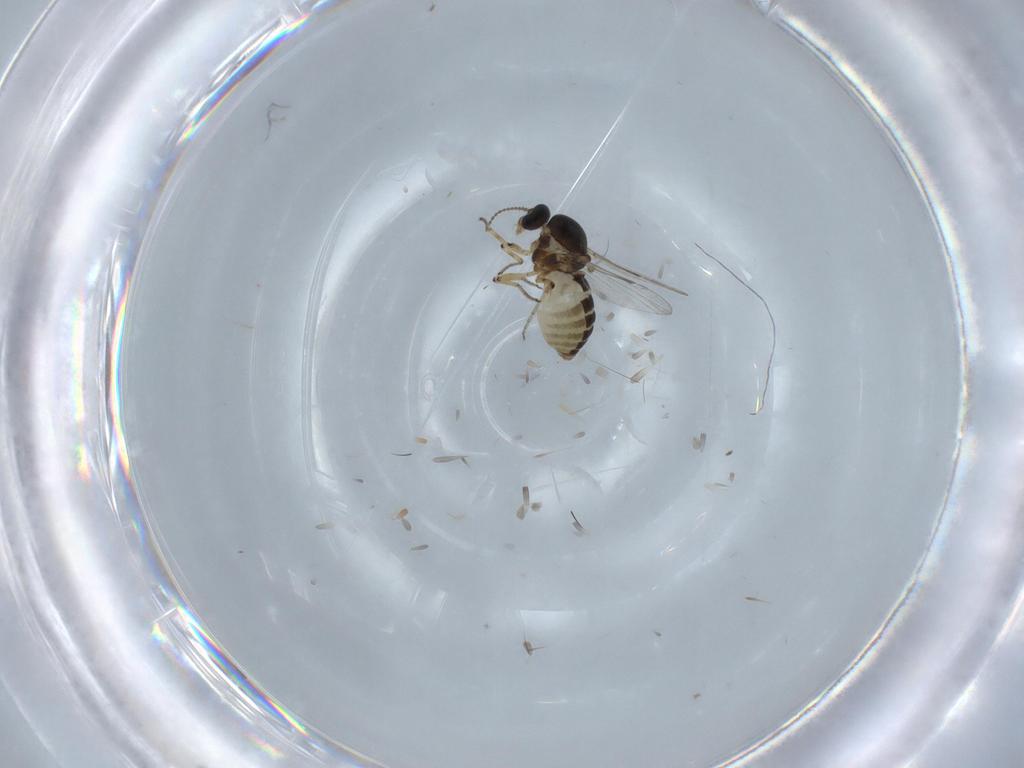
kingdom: Animalia
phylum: Arthropoda
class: Insecta
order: Diptera
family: Ceratopogonidae
